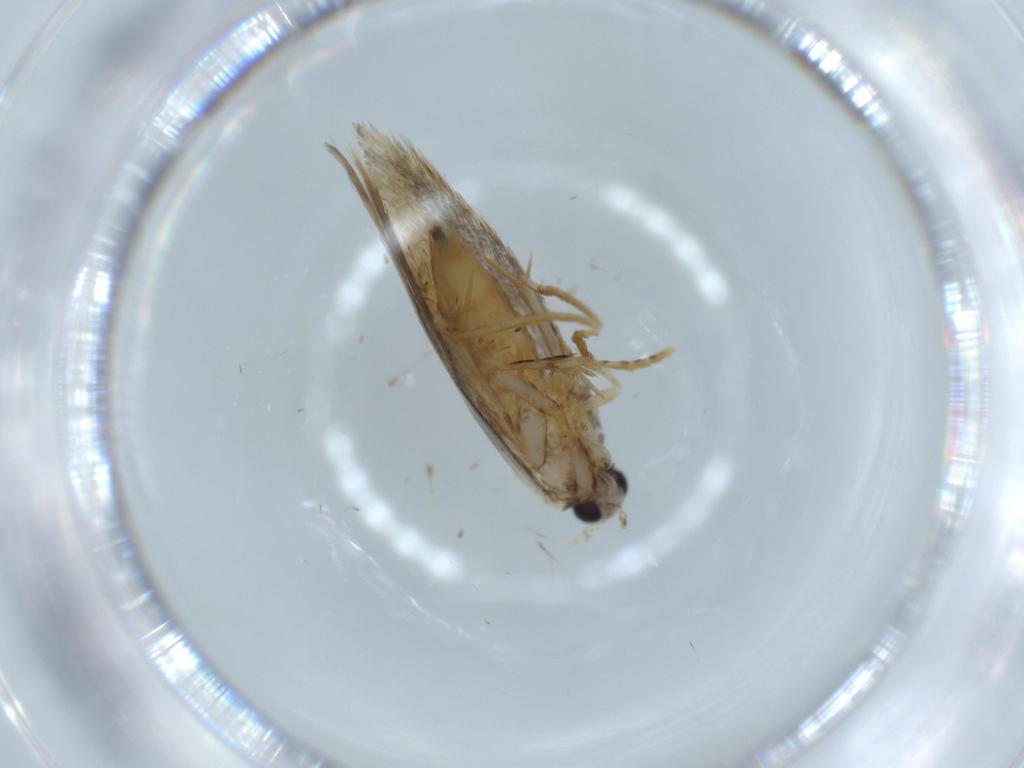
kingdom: Animalia
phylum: Arthropoda
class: Insecta
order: Lepidoptera
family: Tineidae
